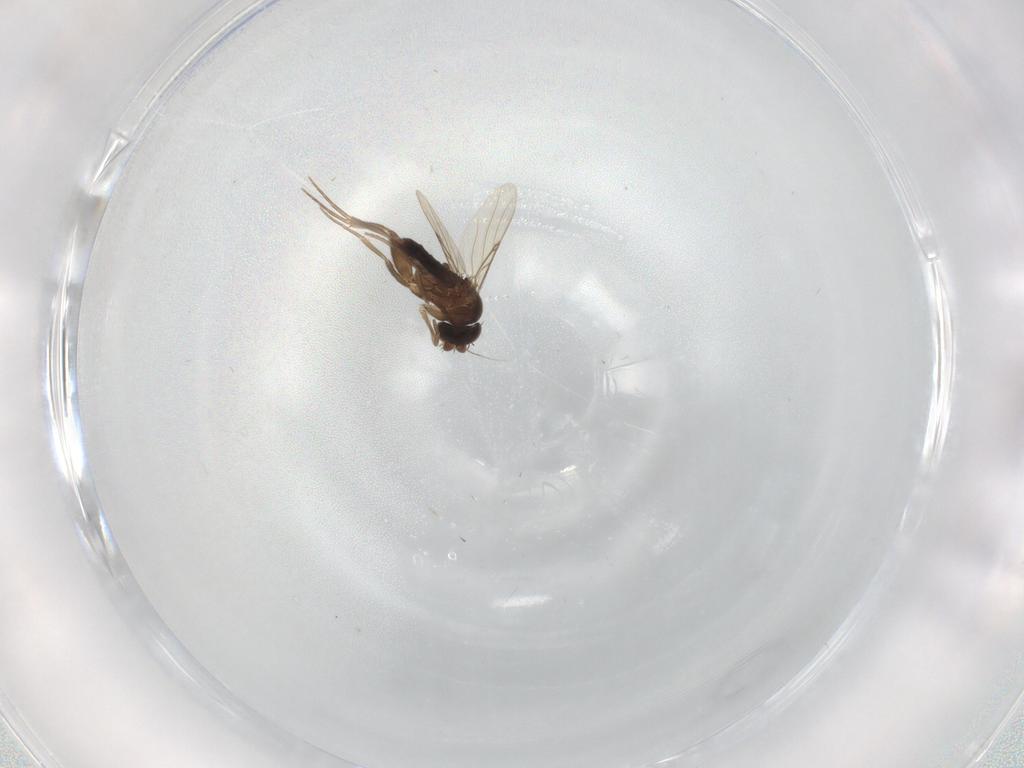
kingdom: Animalia
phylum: Arthropoda
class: Insecta
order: Diptera
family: Phoridae
